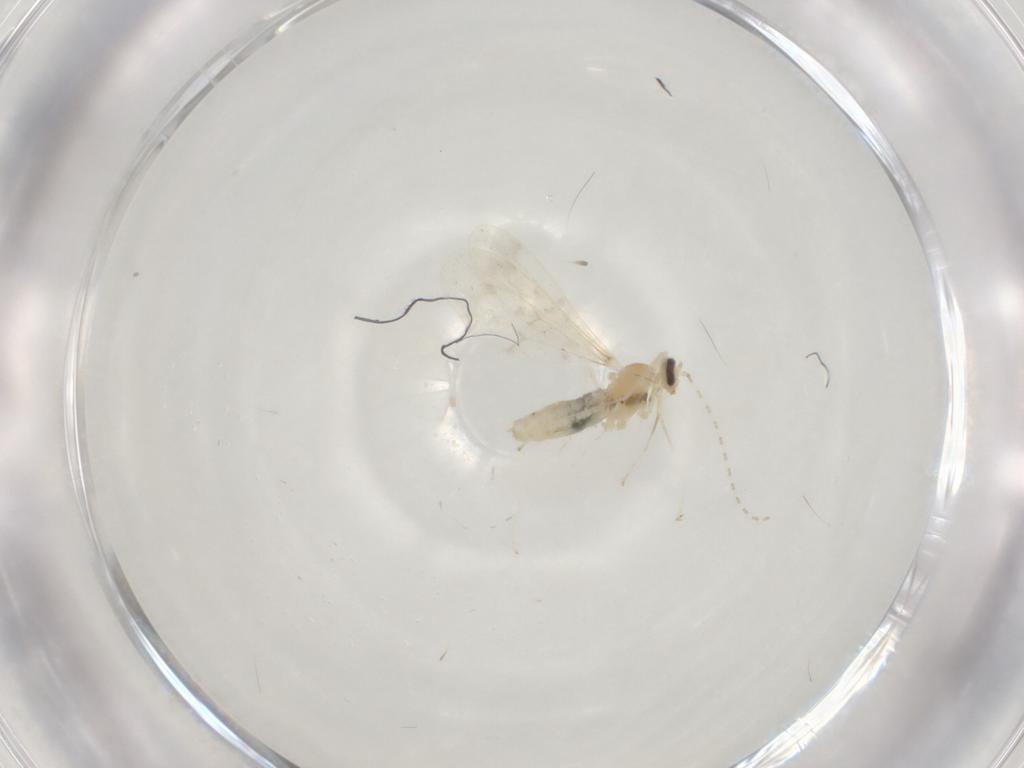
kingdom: Animalia
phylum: Arthropoda
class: Insecta
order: Diptera
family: Cecidomyiidae
